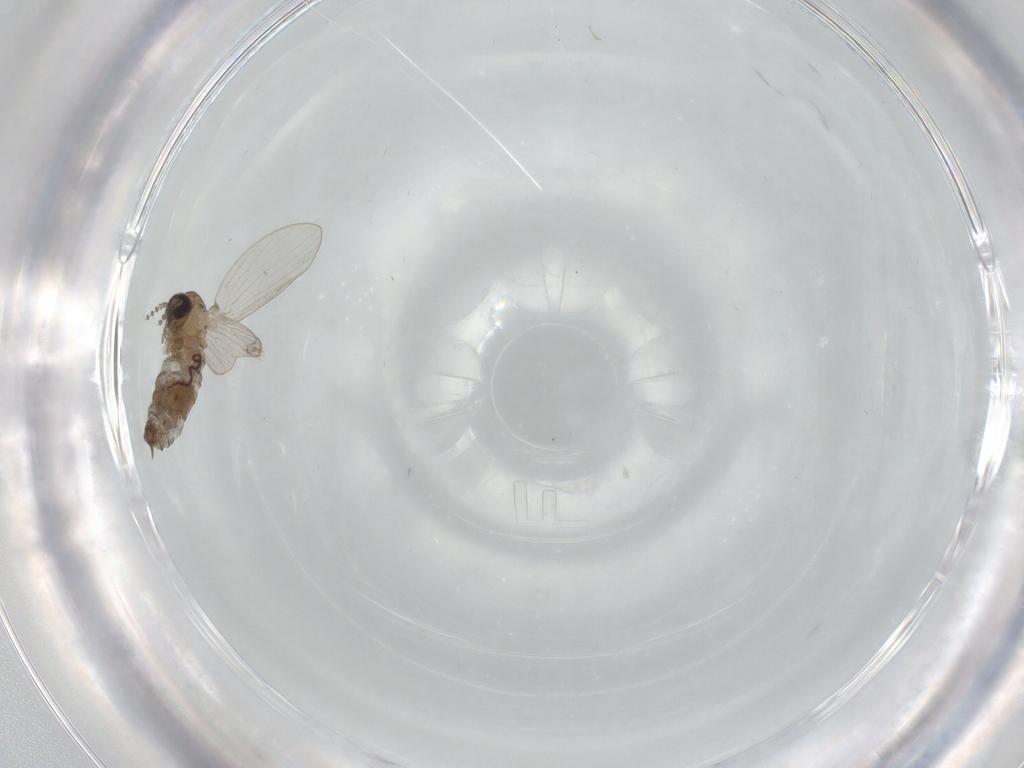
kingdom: Animalia
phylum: Arthropoda
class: Insecta
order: Diptera
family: Psychodidae
